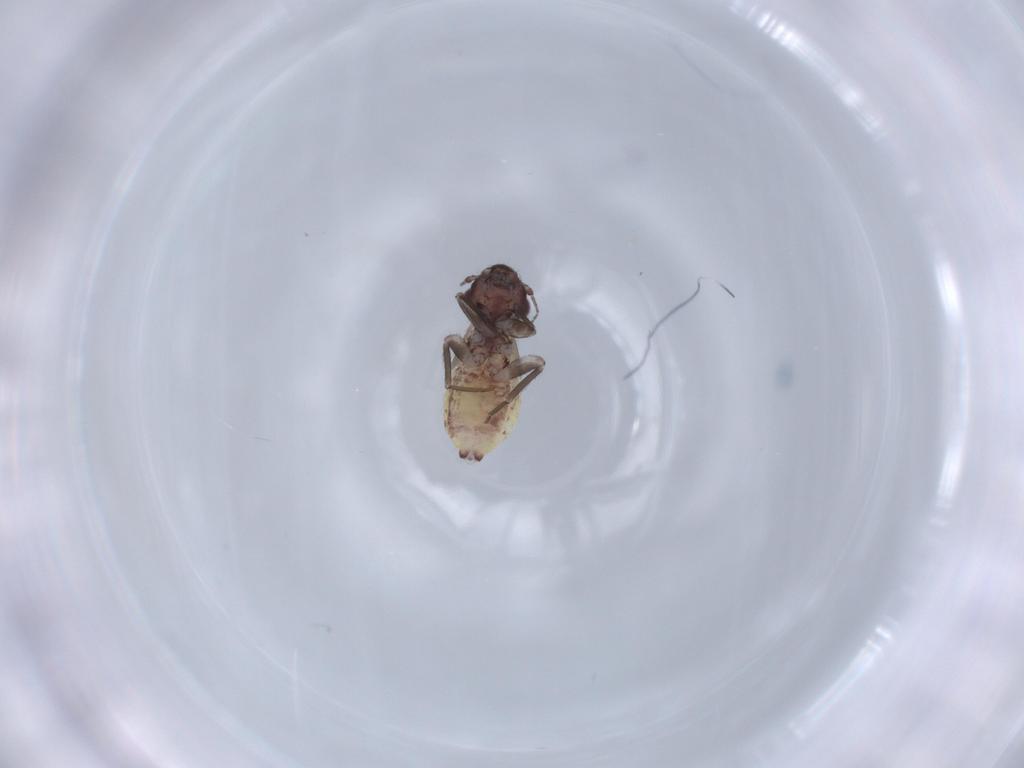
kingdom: Animalia
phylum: Arthropoda
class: Insecta
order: Psocodea
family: Lepidopsocidae
